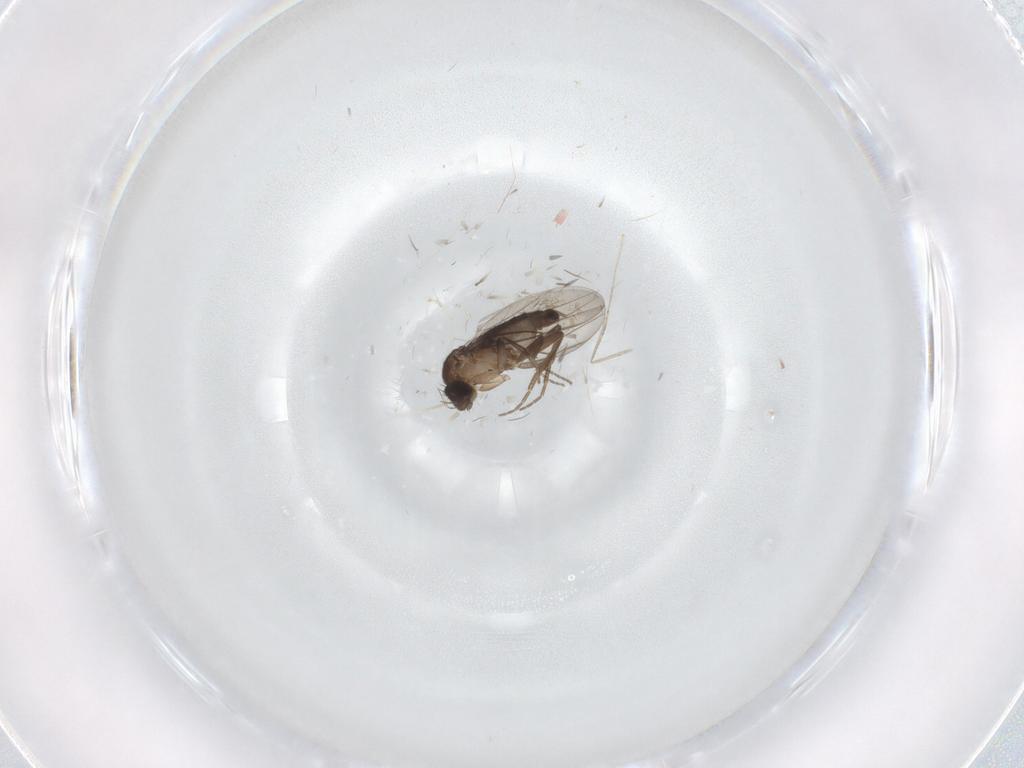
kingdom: Animalia
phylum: Arthropoda
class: Insecta
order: Diptera
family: Phoridae
